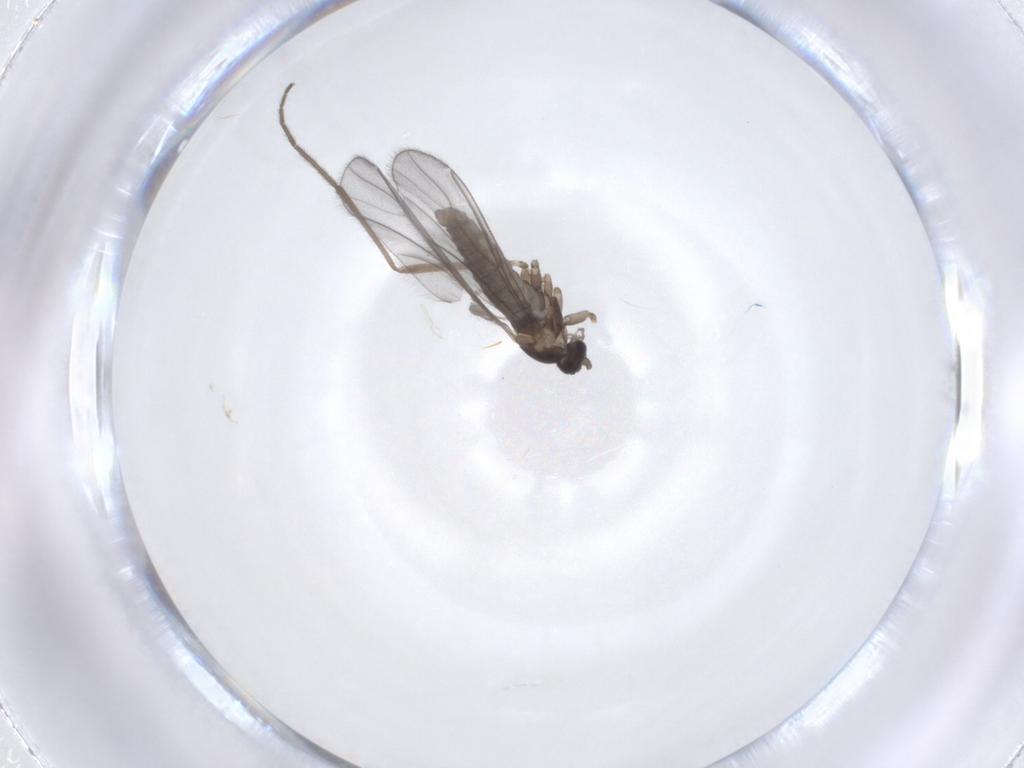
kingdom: Animalia
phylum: Arthropoda
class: Insecta
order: Diptera
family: Cecidomyiidae
